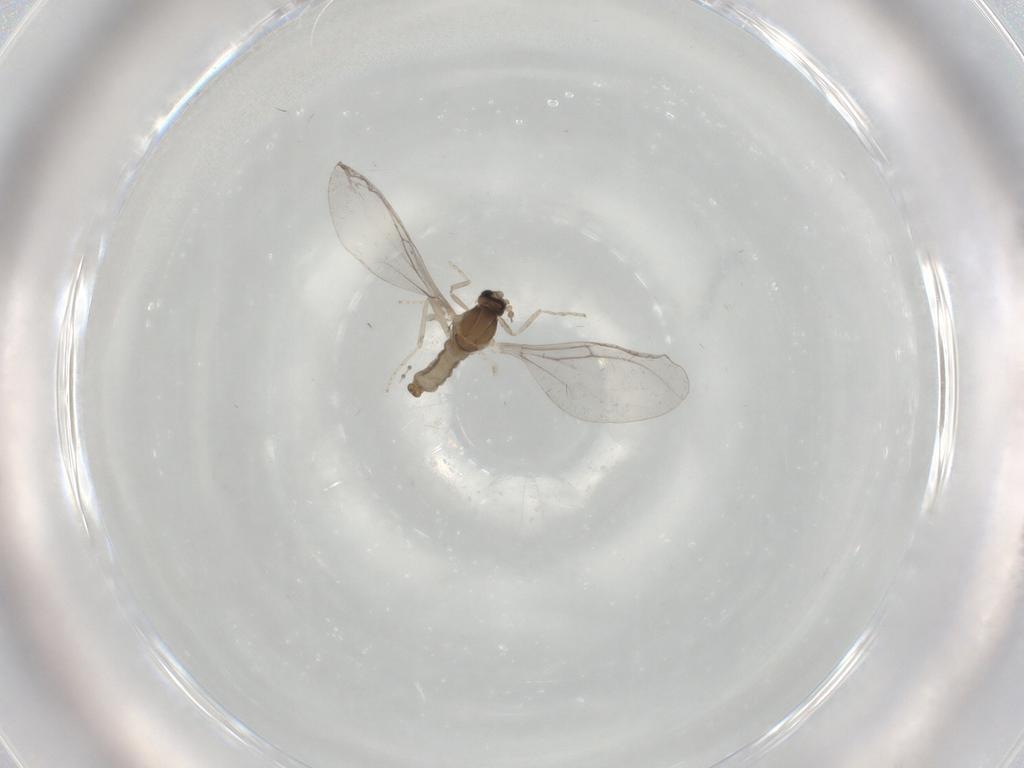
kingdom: Animalia
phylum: Arthropoda
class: Insecta
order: Diptera
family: Cecidomyiidae
